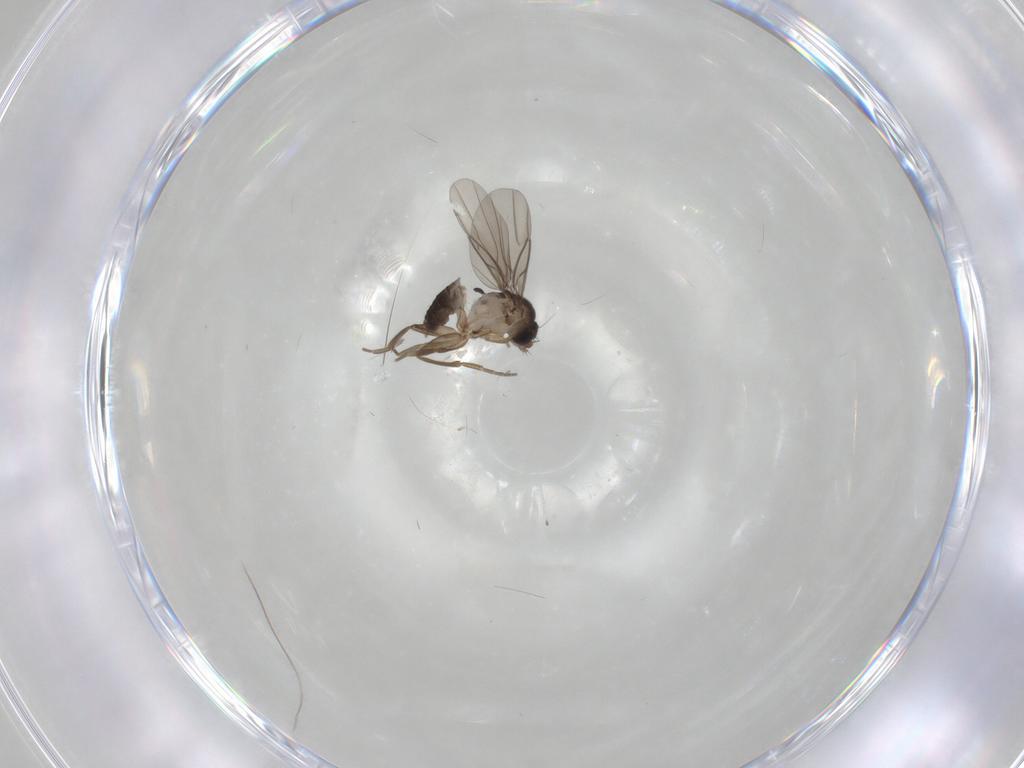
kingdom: Animalia
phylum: Arthropoda
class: Insecta
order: Diptera
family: Phoridae
